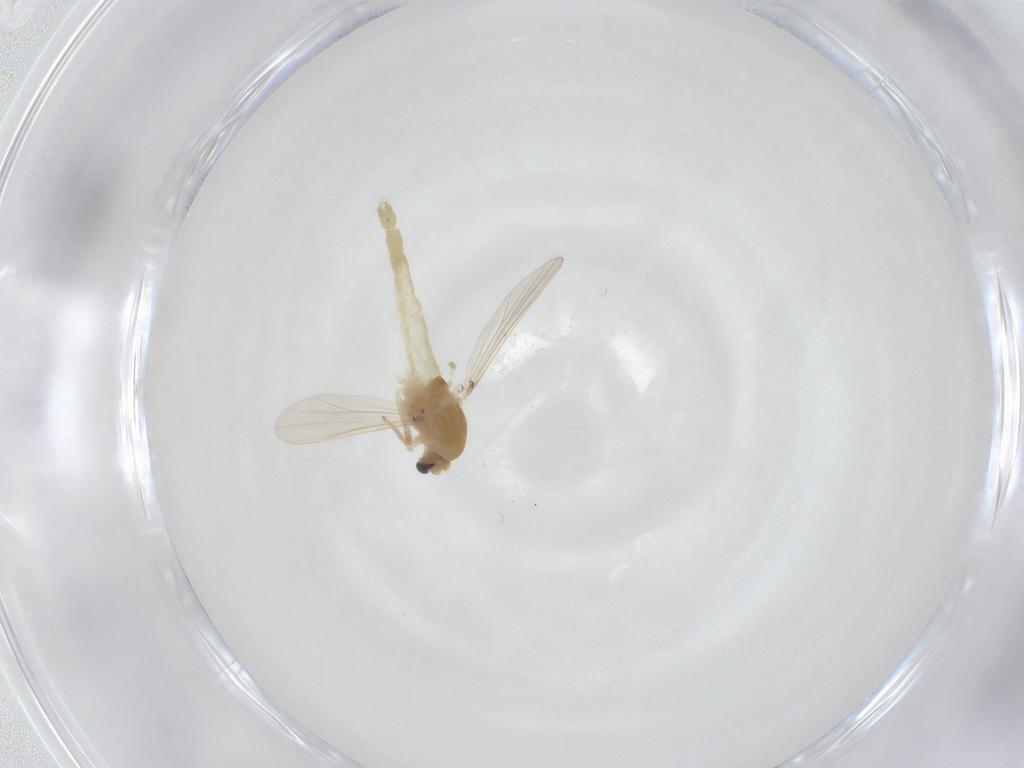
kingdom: Animalia
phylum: Arthropoda
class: Insecta
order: Diptera
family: Chironomidae
